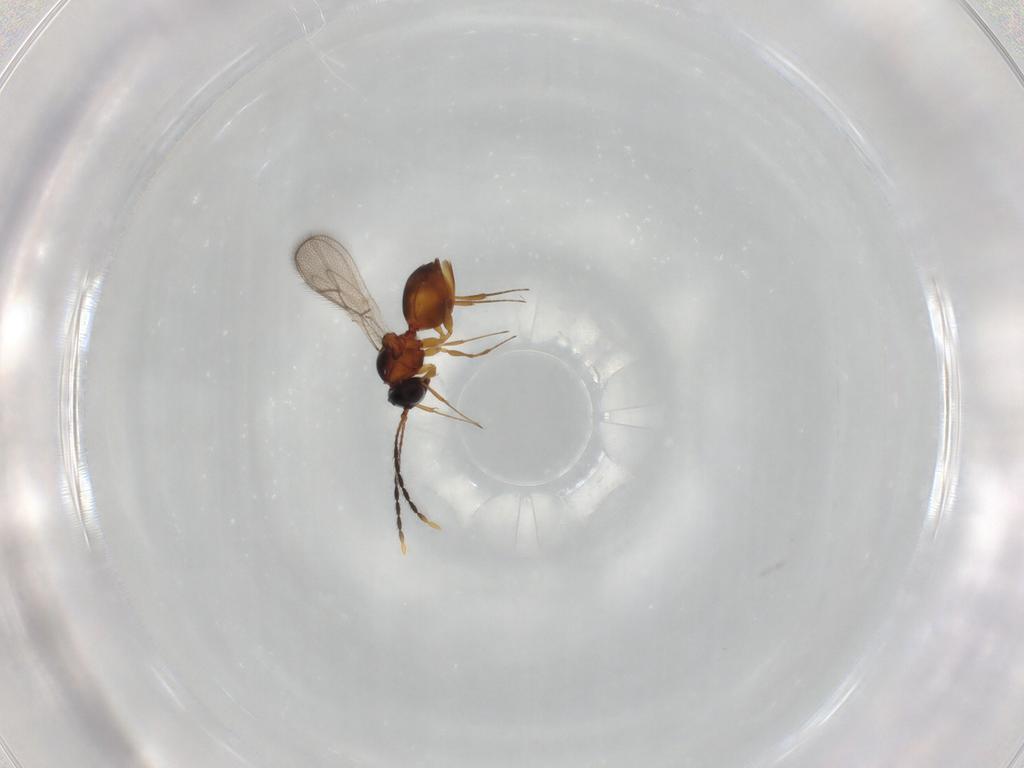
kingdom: Animalia
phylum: Arthropoda
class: Insecta
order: Hymenoptera
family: Figitidae
